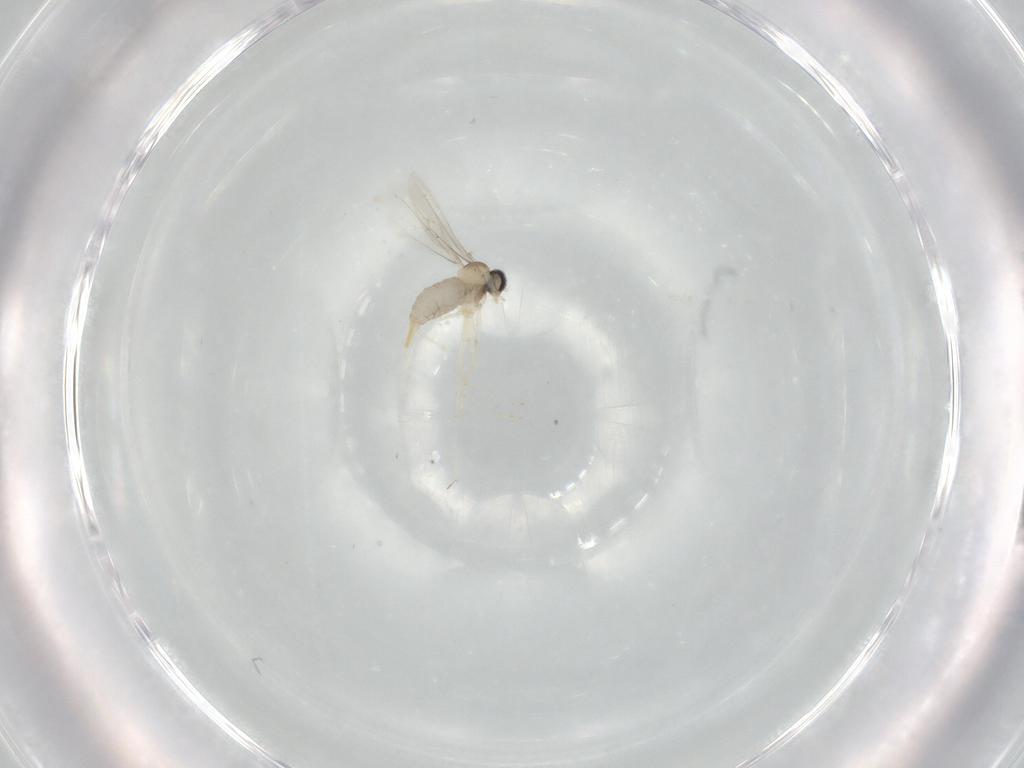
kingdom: Animalia
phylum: Arthropoda
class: Insecta
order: Diptera
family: Cecidomyiidae
